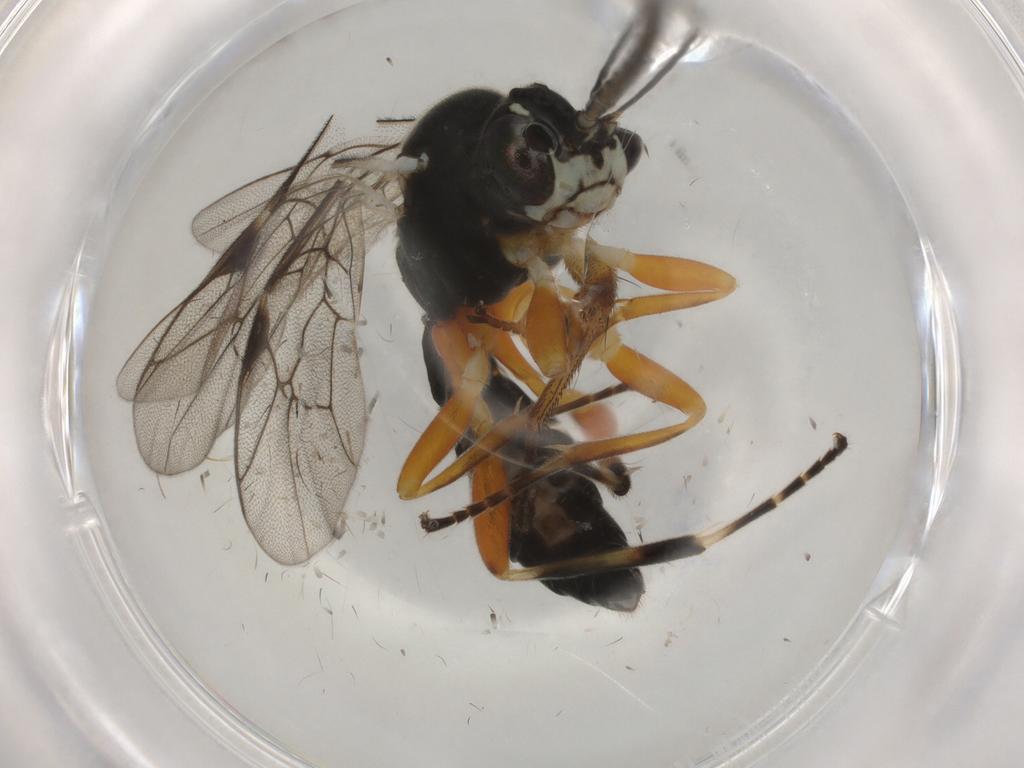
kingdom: Animalia
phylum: Arthropoda
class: Insecta
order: Hymenoptera
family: Ichneumonidae
